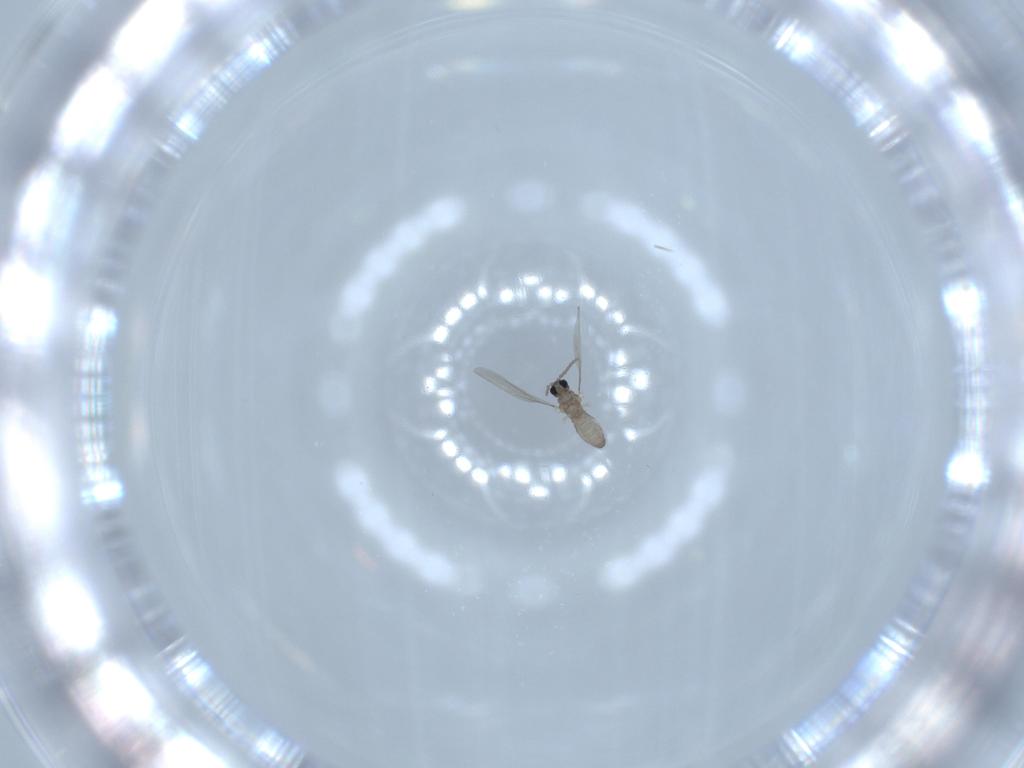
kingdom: Animalia
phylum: Arthropoda
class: Insecta
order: Diptera
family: Cecidomyiidae
